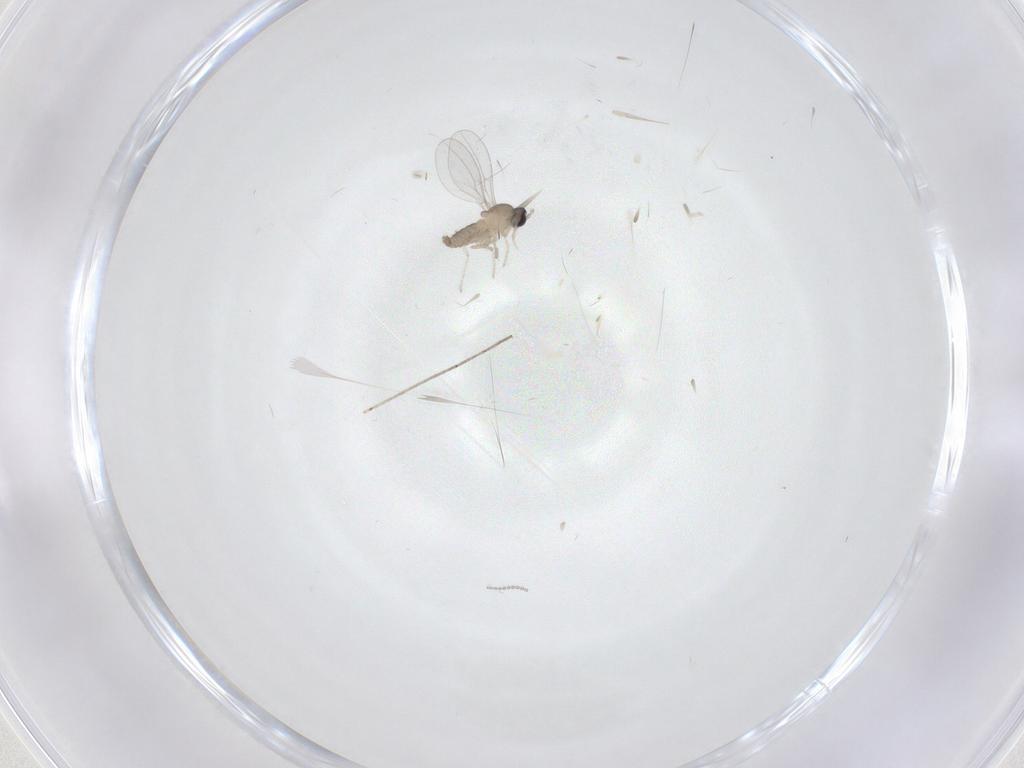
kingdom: Animalia
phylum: Arthropoda
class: Insecta
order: Diptera
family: Cecidomyiidae
